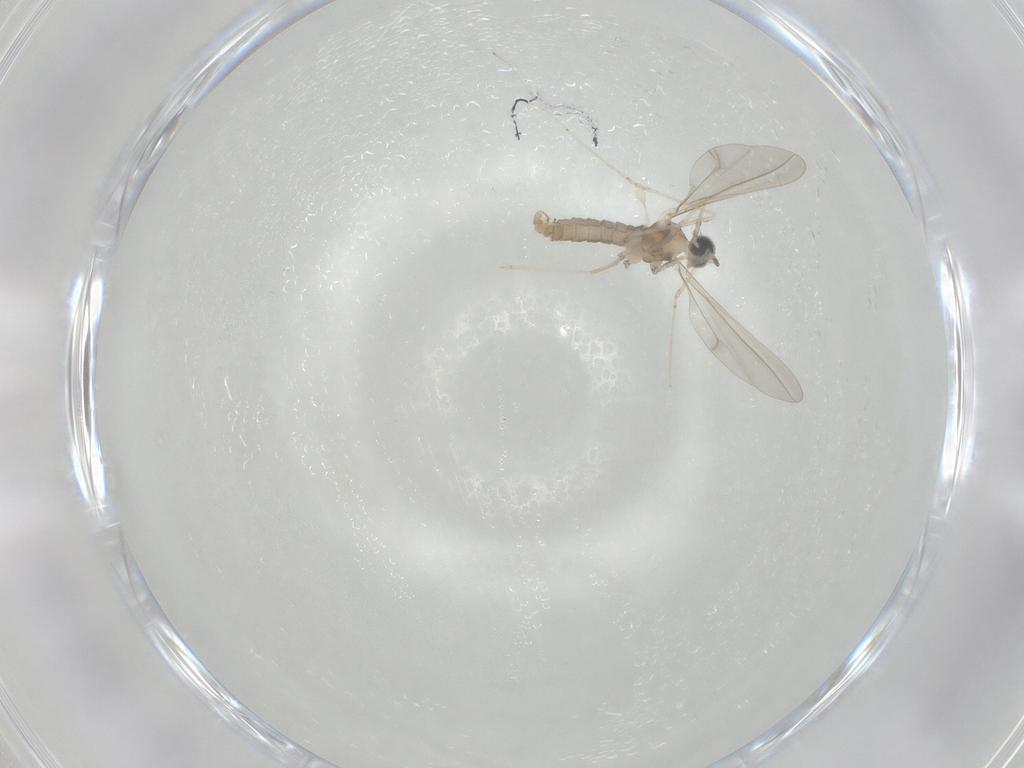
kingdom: Animalia
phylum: Arthropoda
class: Insecta
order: Diptera
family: Cecidomyiidae
